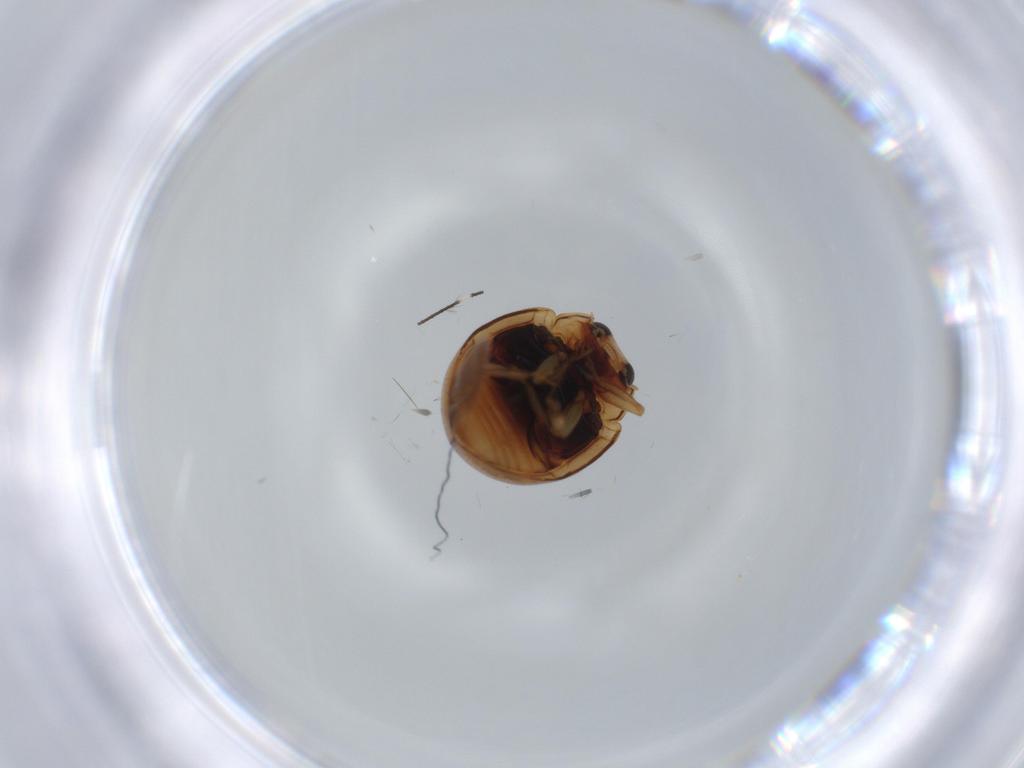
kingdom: Animalia
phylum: Arthropoda
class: Insecta
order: Coleoptera
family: Coccinellidae
